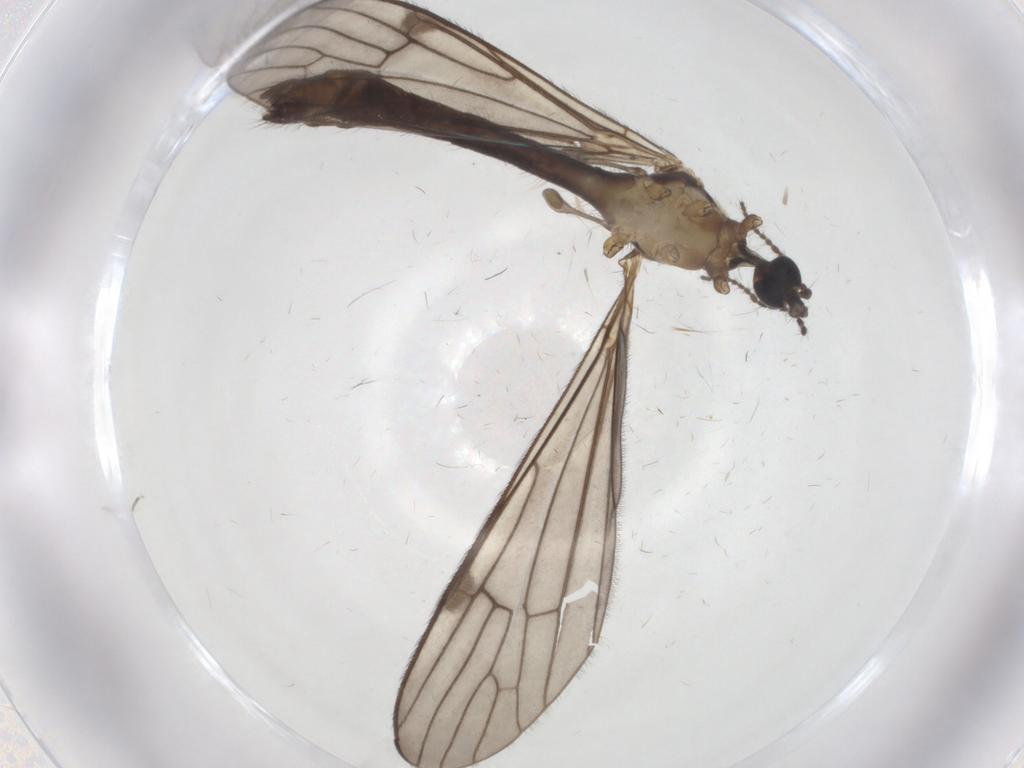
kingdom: Animalia
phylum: Arthropoda
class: Insecta
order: Diptera
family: Limoniidae
